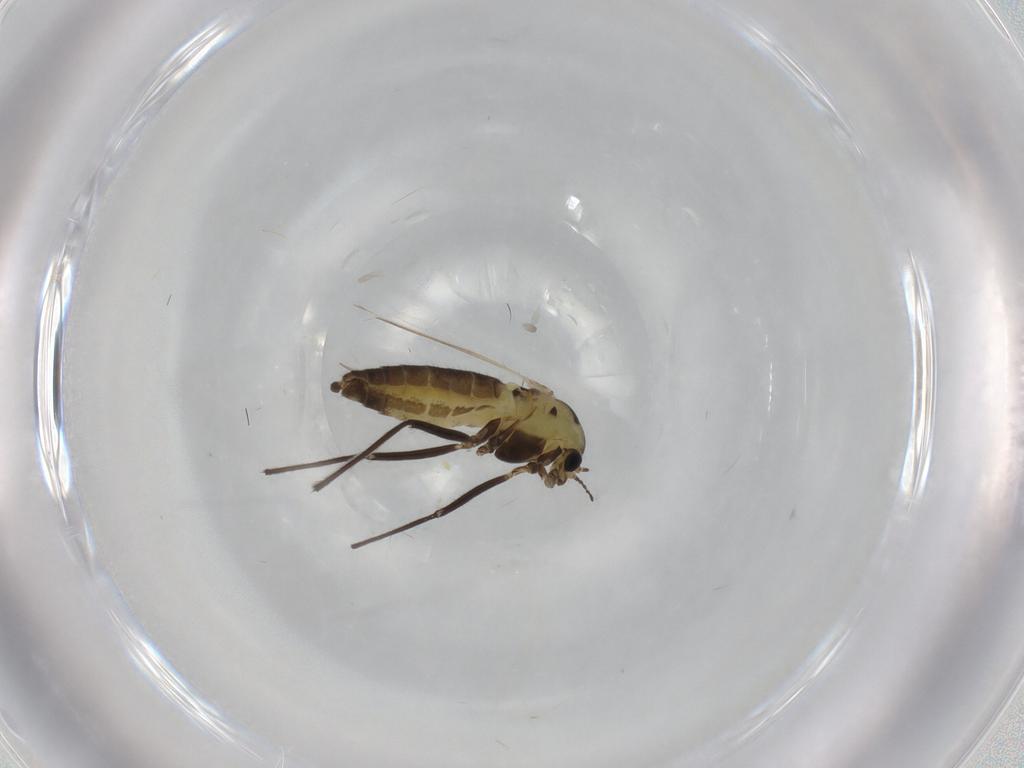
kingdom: Animalia
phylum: Arthropoda
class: Insecta
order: Diptera
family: Chironomidae
